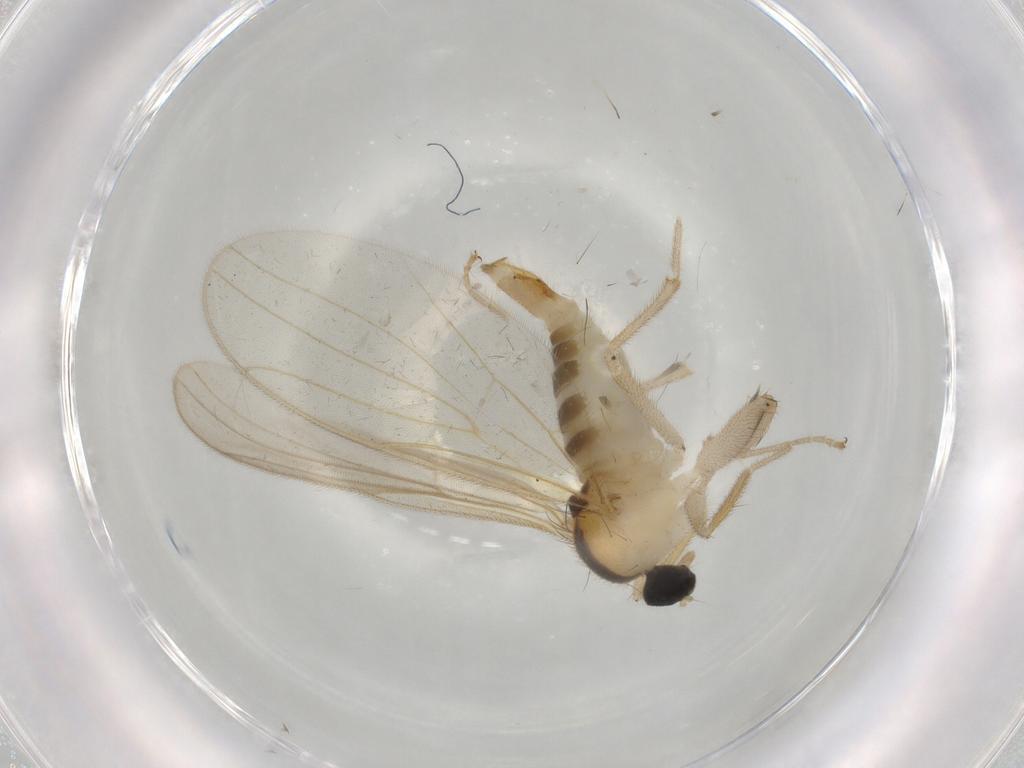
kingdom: Animalia
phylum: Arthropoda
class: Insecta
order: Diptera
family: Hybotidae
